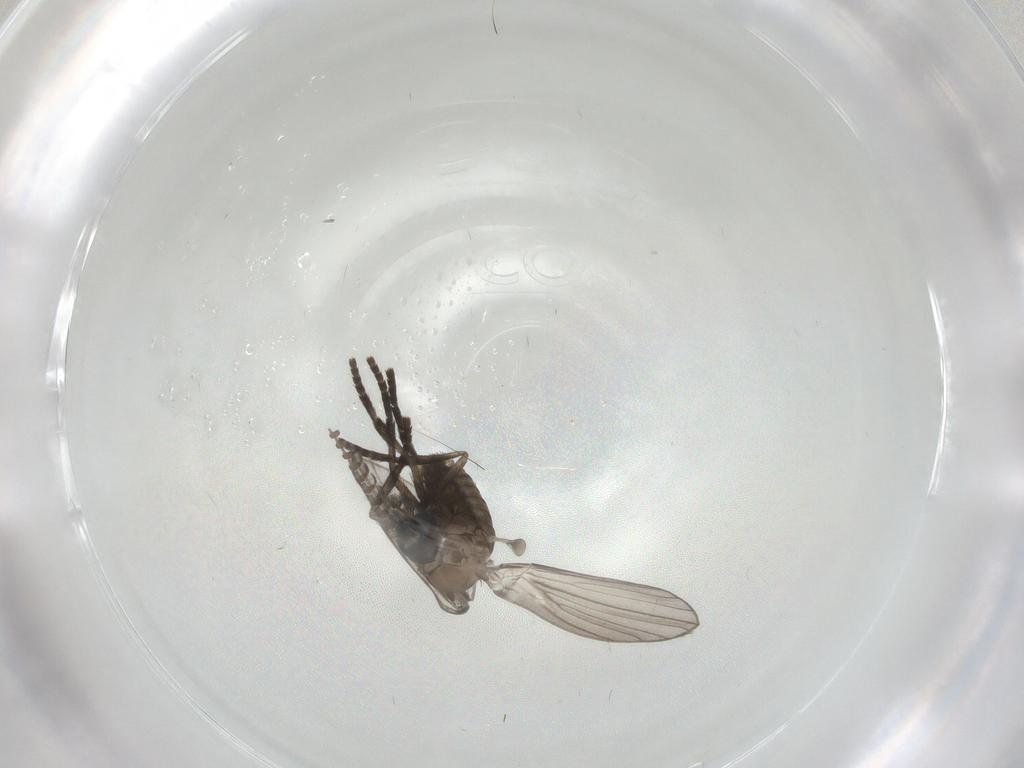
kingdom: Animalia
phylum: Arthropoda
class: Insecta
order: Diptera
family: Psychodidae
